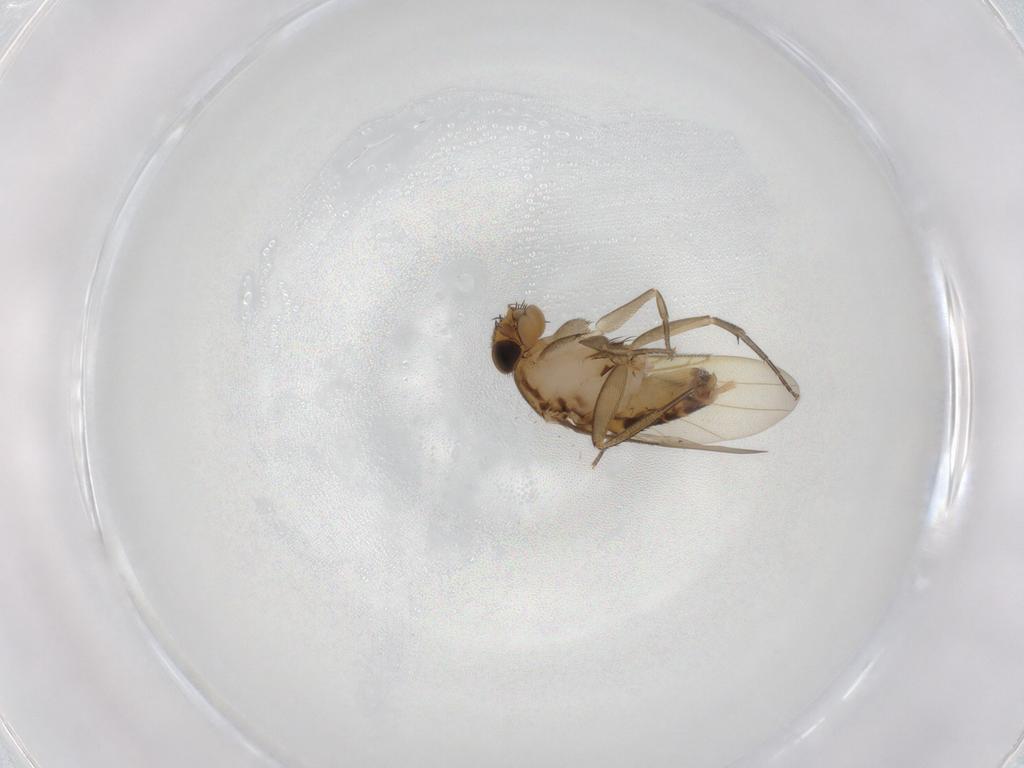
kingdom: Animalia
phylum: Arthropoda
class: Insecta
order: Diptera
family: Phoridae
